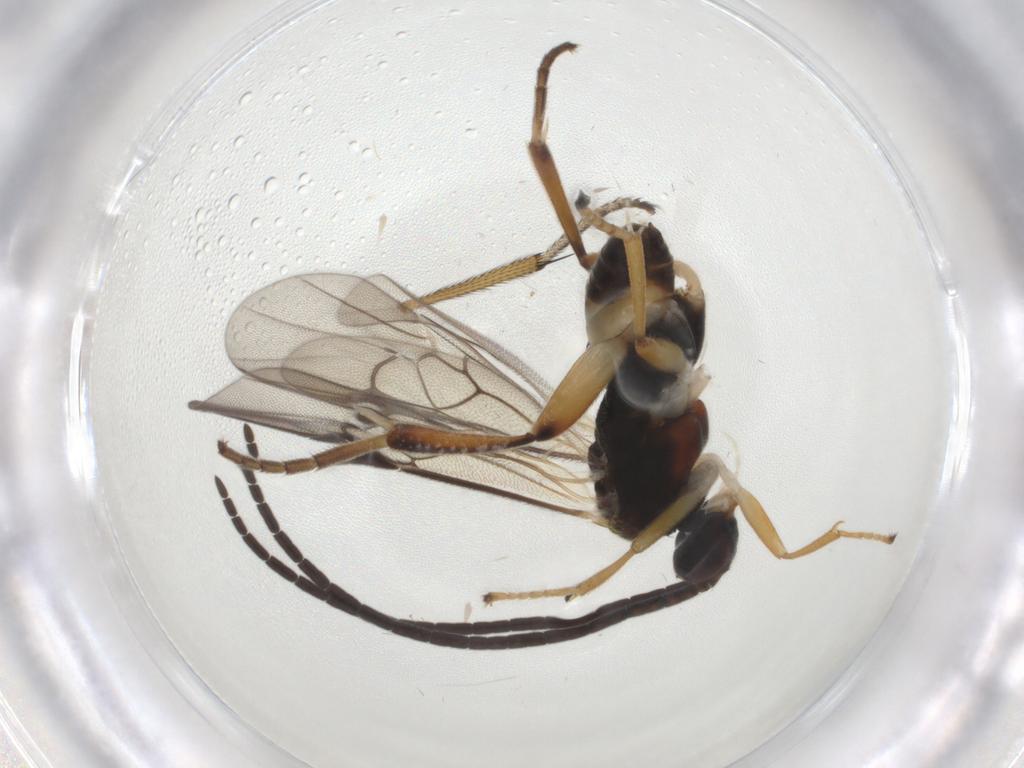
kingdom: Animalia
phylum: Arthropoda
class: Insecta
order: Hymenoptera
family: Braconidae
